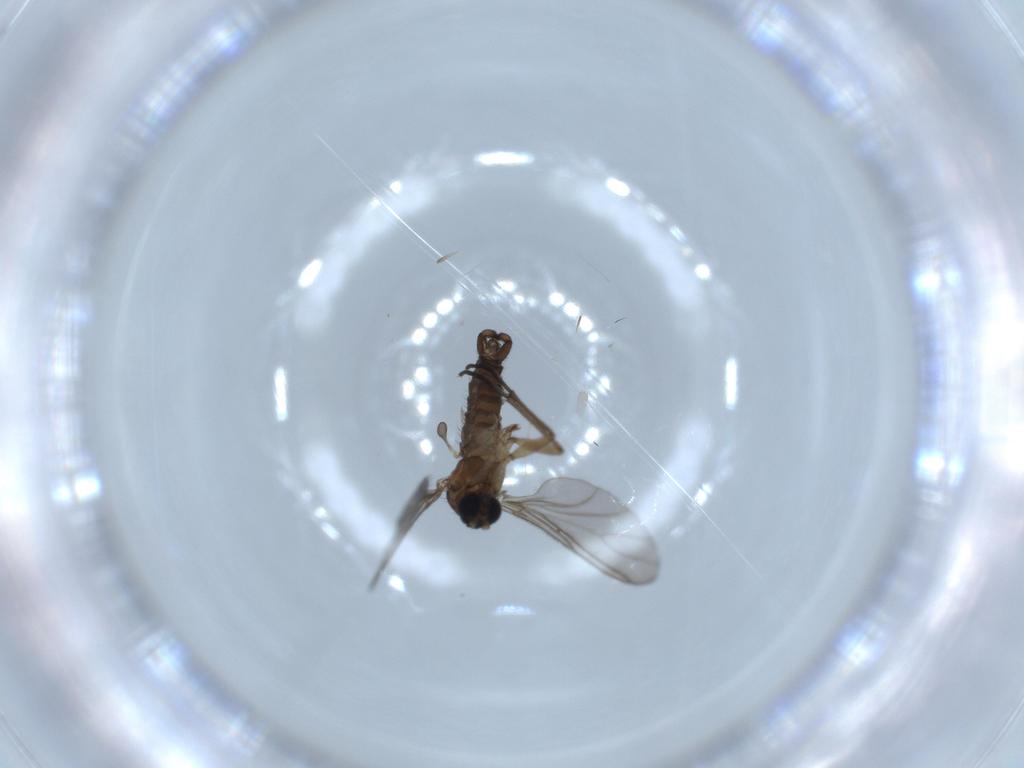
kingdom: Animalia
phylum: Arthropoda
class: Insecta
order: Diptera
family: Sciaridae
